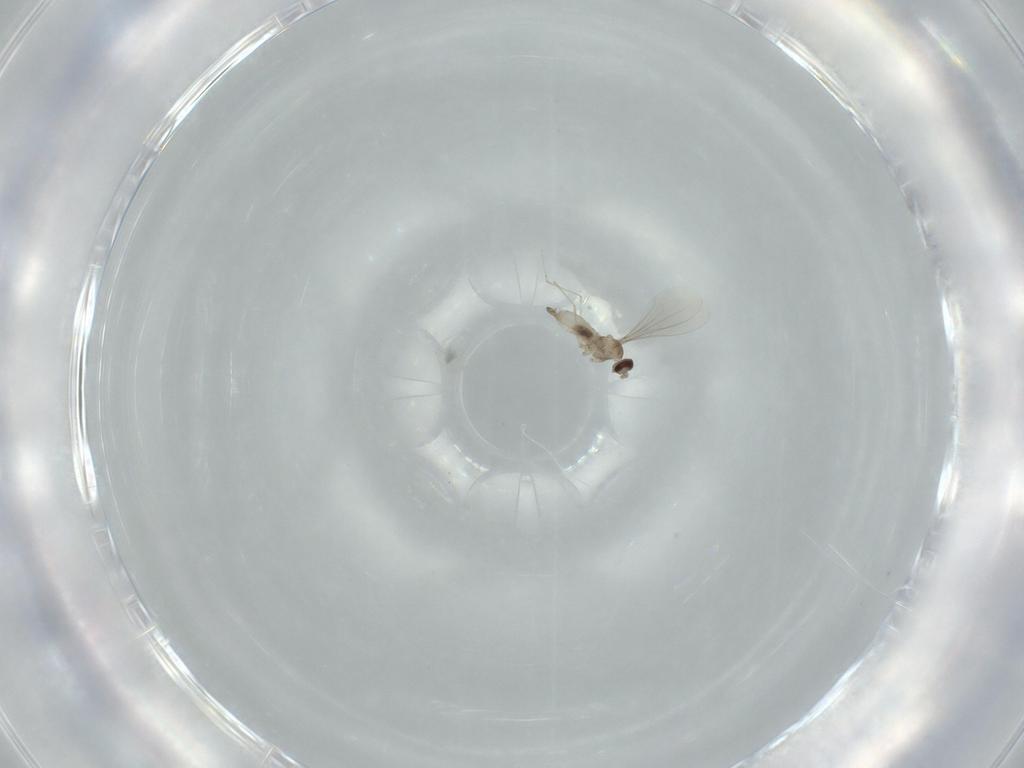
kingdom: Animalia
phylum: Arthropoda
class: Insecta
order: Diptera
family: Cecidomyiidae
